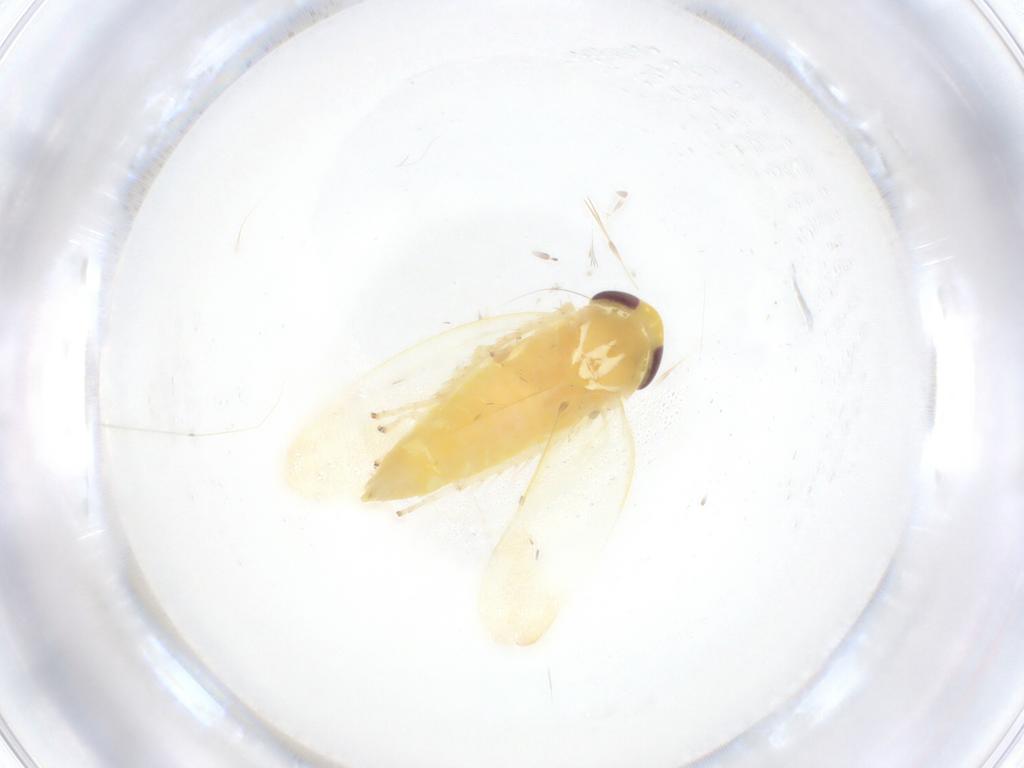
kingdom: Animalia
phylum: Arthropoda
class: Insecta
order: Hemiptera
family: Cicadellidae
